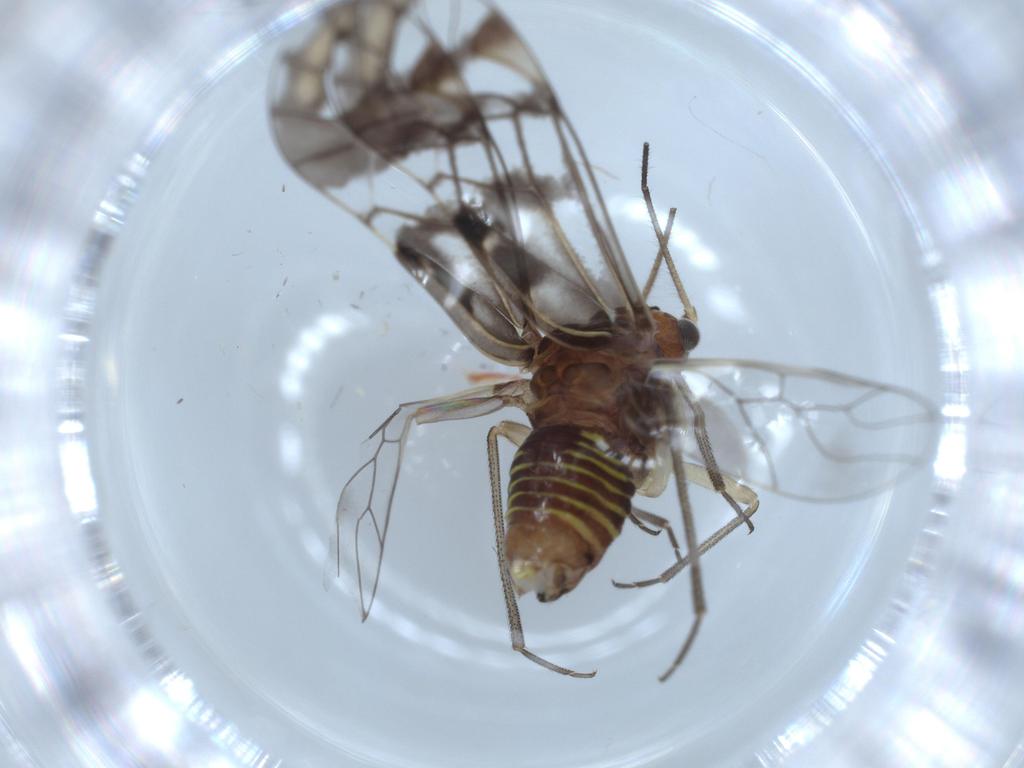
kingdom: Animalia
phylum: Arthropoda
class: Insecta
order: Psocodea
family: Psocidae
